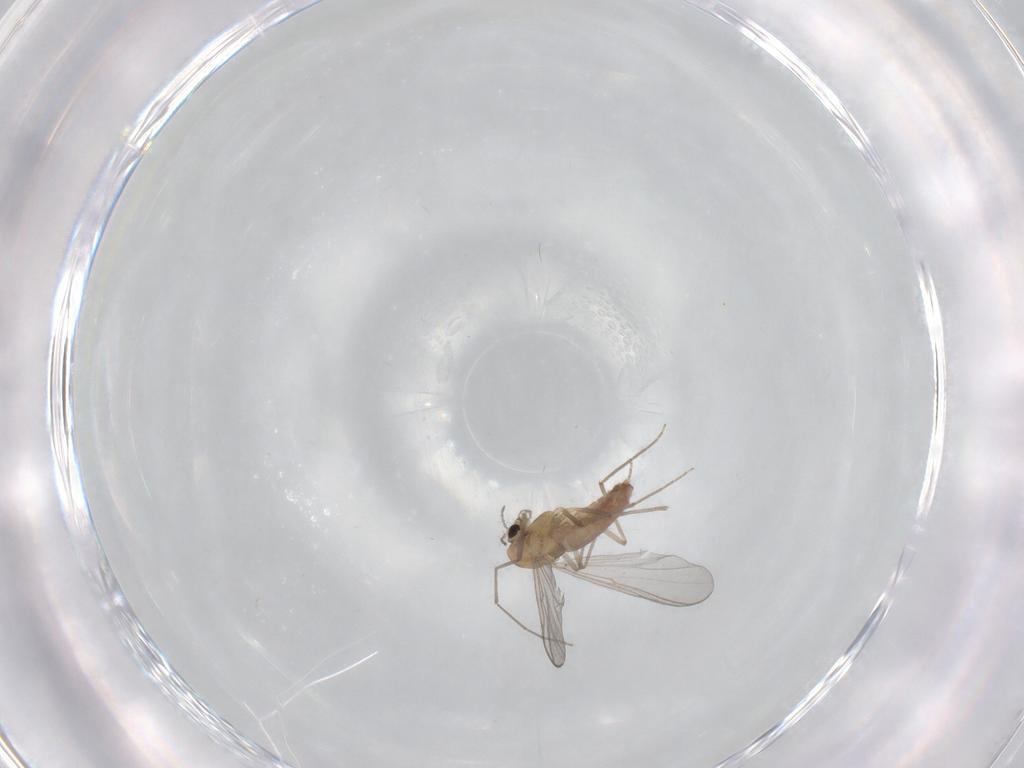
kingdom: Animalia
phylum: Arthropoda
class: Insecta
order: Diptera
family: Chironomidae
